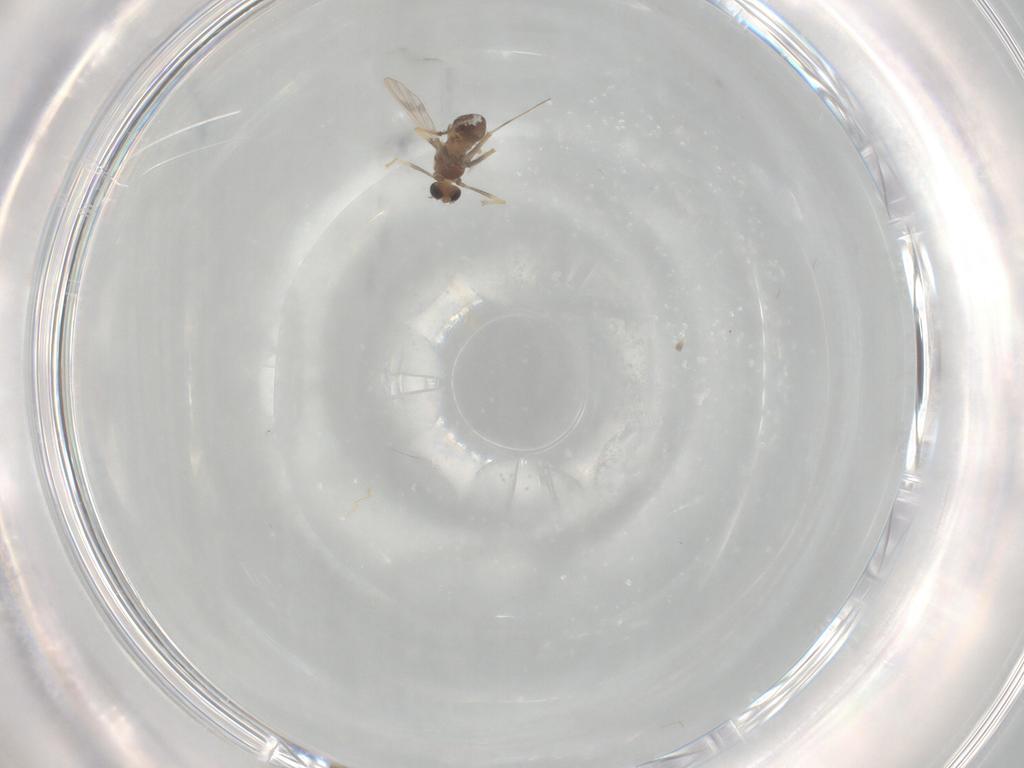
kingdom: Animalia
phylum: Arthropoda
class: Insecta
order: Diptera
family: Chironomidae
